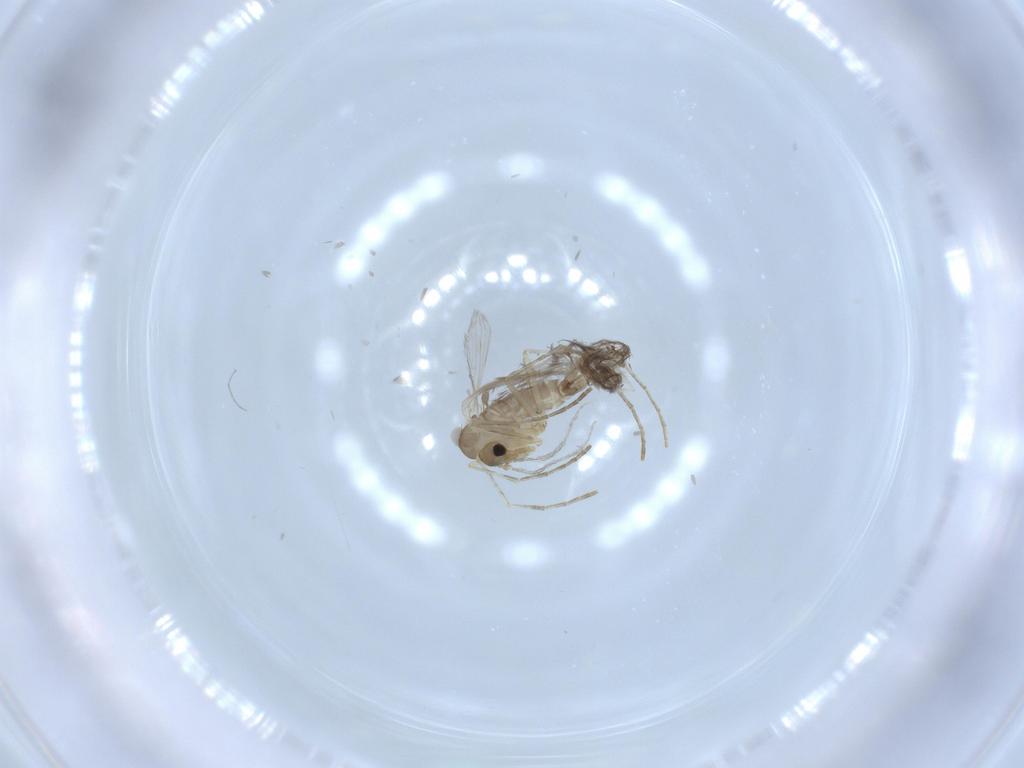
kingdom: Animalia
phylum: Arthropoda
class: Insecta
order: Diptera
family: Psychodidae
